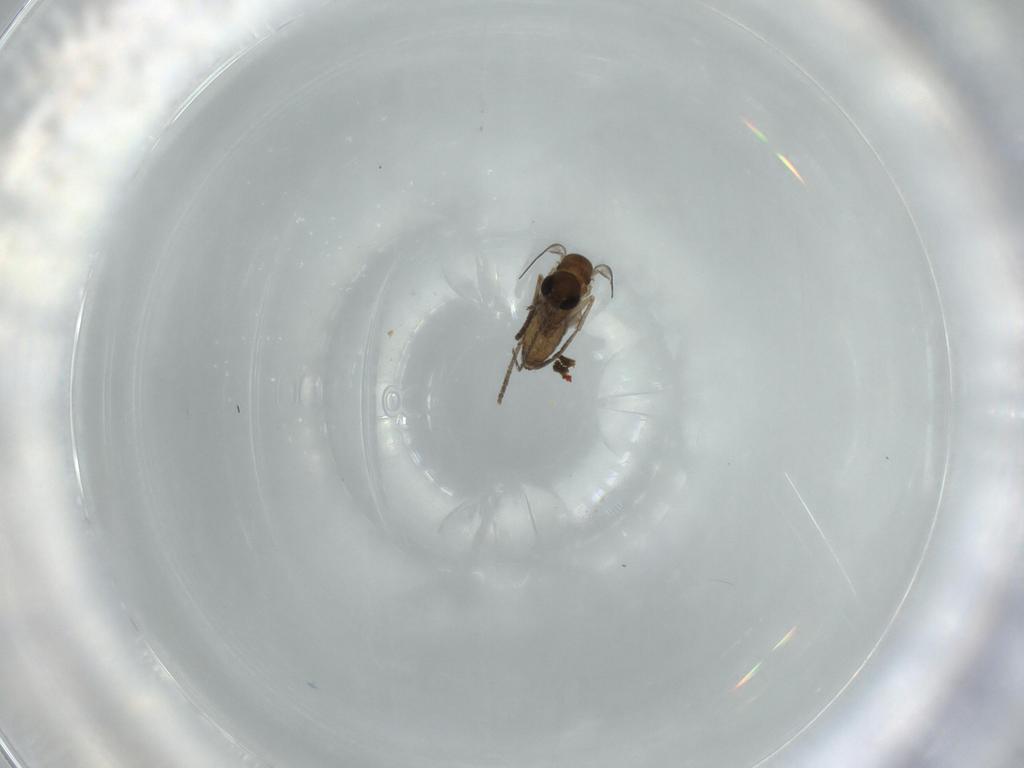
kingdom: Animalia
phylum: Arthropoda
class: Insecta
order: Diptera
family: Psychodidae
